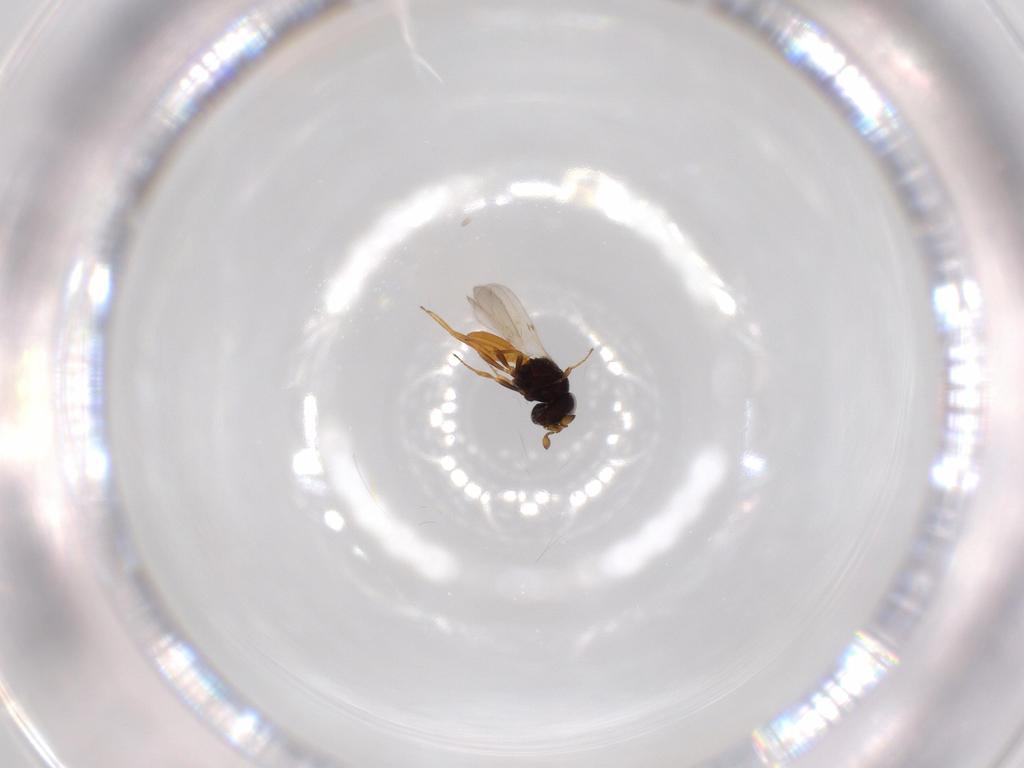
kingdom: Animalia
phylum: Arthropoda
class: Insecta
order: Hymenoptera
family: Scelionidae
